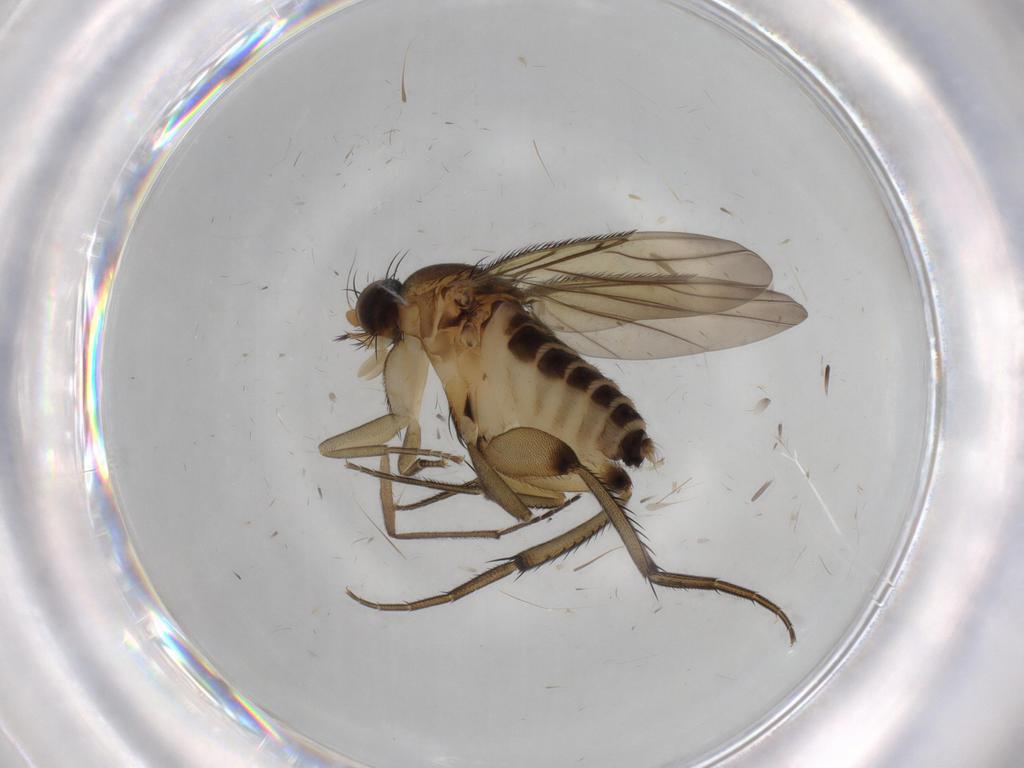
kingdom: Animalia
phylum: Arthropoda
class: Insecta
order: Diptera
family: Phoridae
